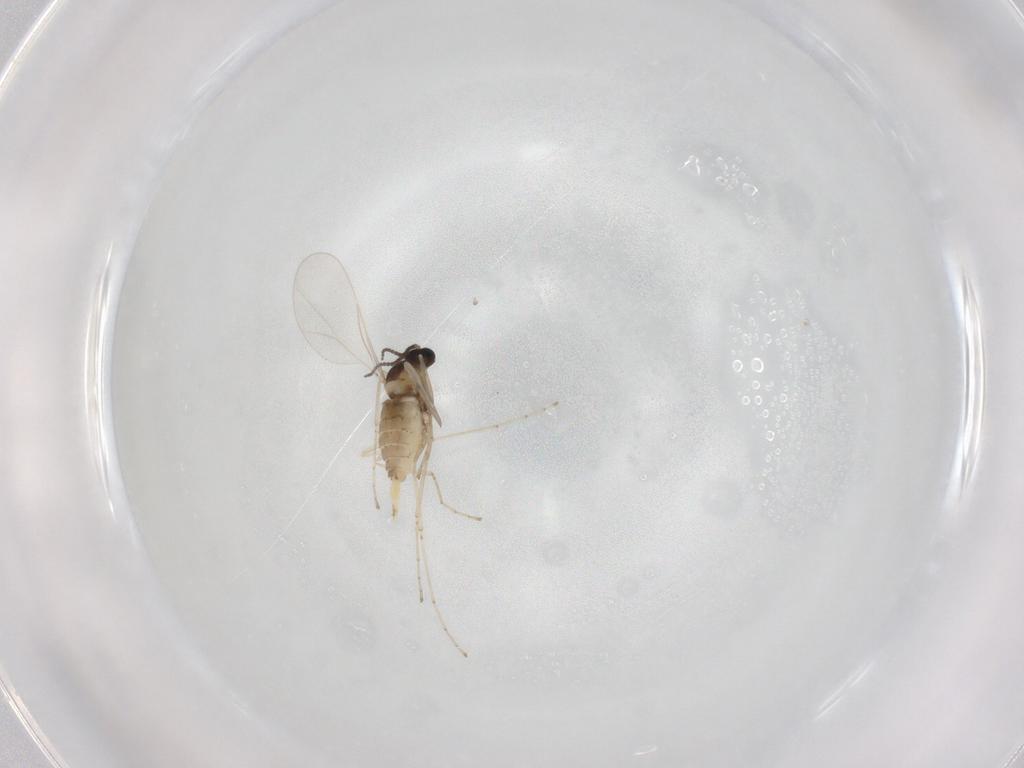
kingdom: Animalia
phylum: Arthropoda
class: Insecta
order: Diptera
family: Cecidomyiidae
